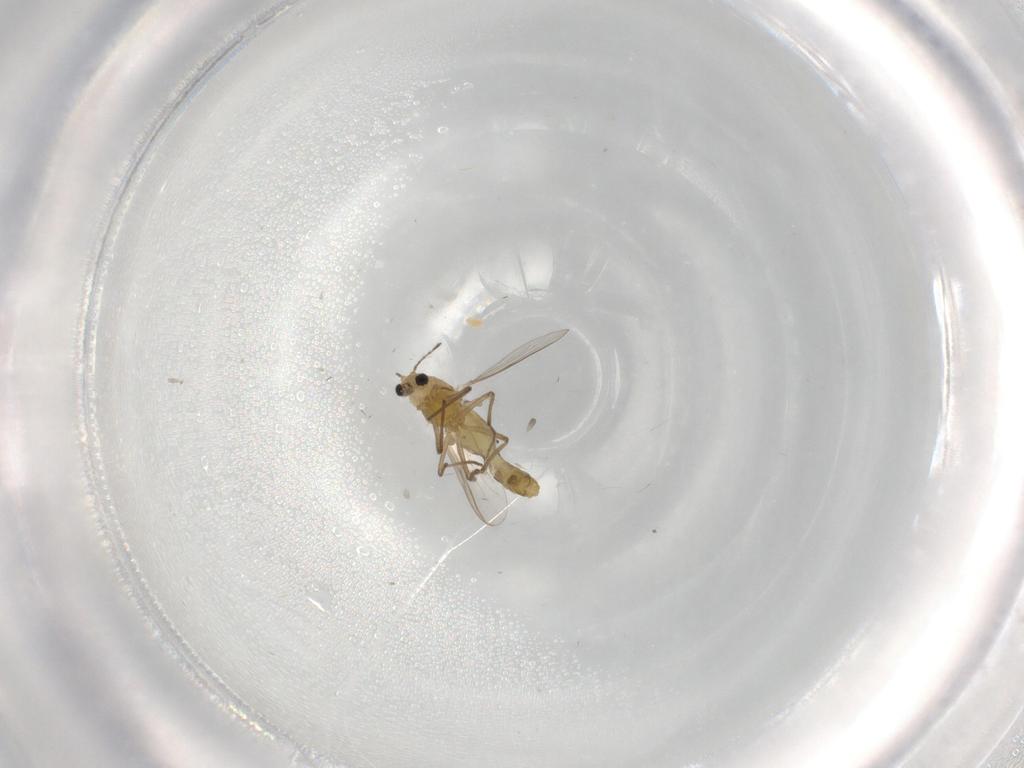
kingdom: Animalia
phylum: Arthropoda
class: Insecta
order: Diptera
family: Chironomidae
